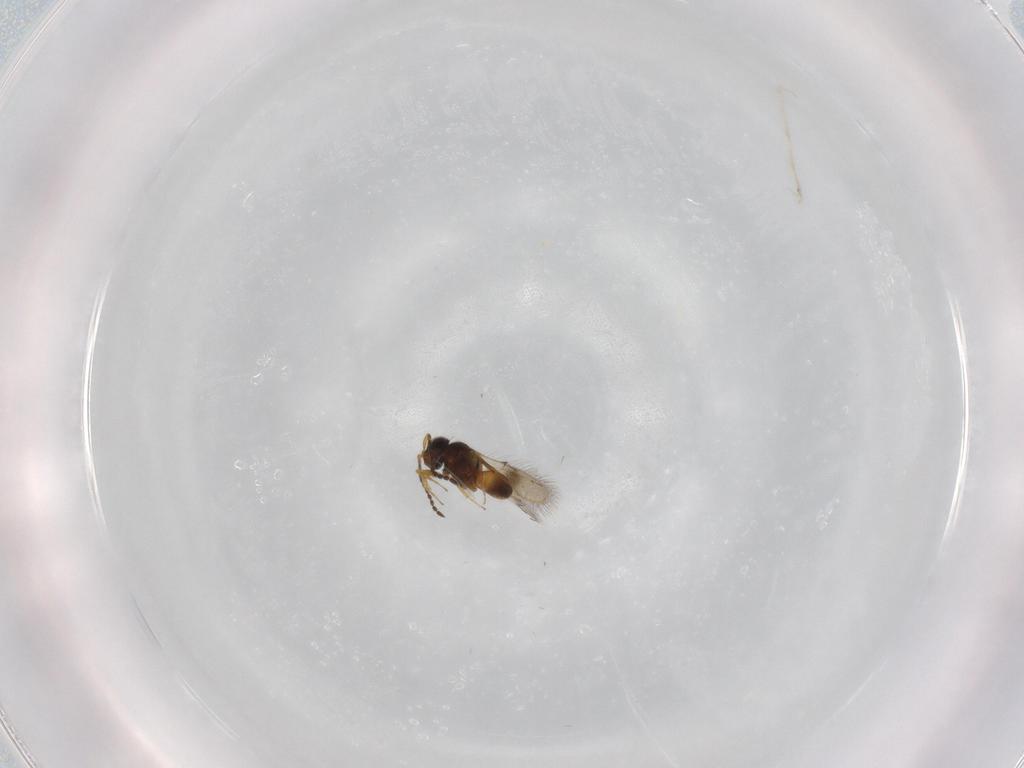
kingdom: Animalia
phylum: Arthropoda
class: Insecta
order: Hymenoptera
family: Scelionidae
